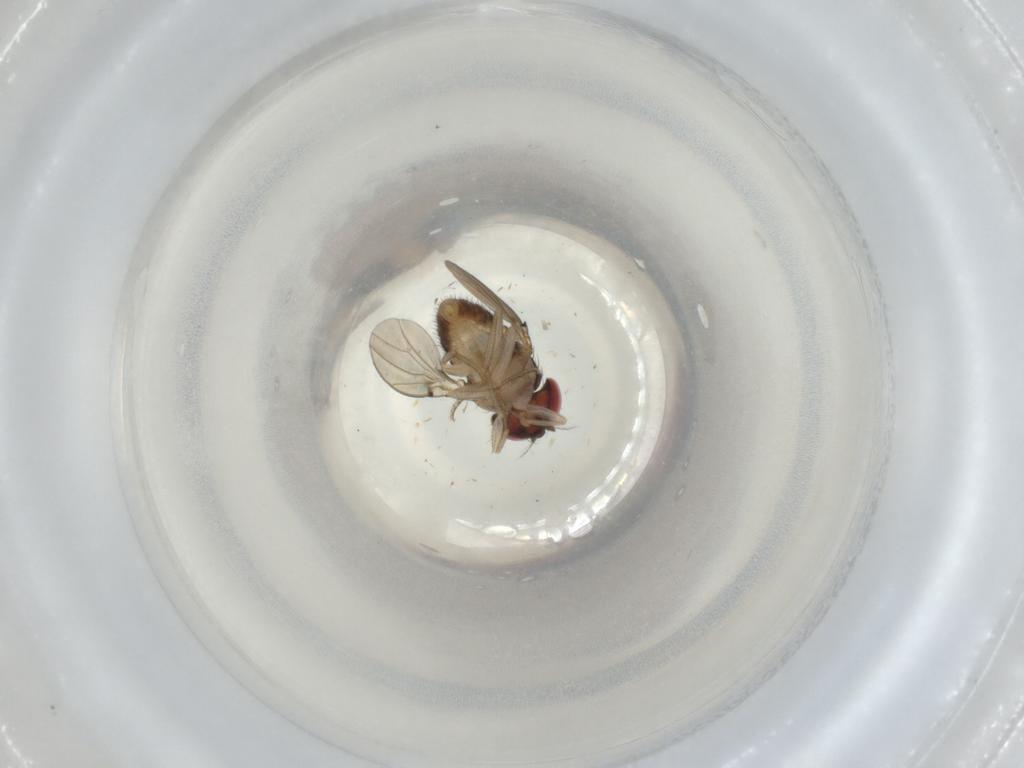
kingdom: Animalia
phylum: Arthropoda
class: Insecta
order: Diptera
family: Drosophilidae
